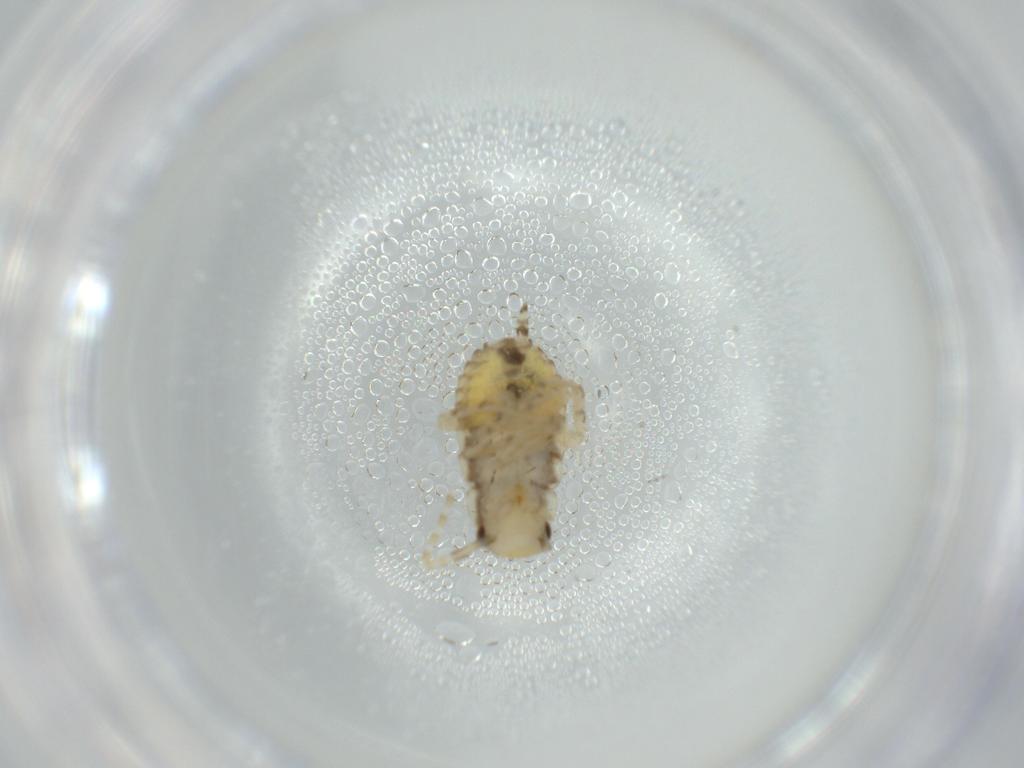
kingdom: Animalia
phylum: Arthropoda
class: Insecta
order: Blattodea
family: Ectobiidae
